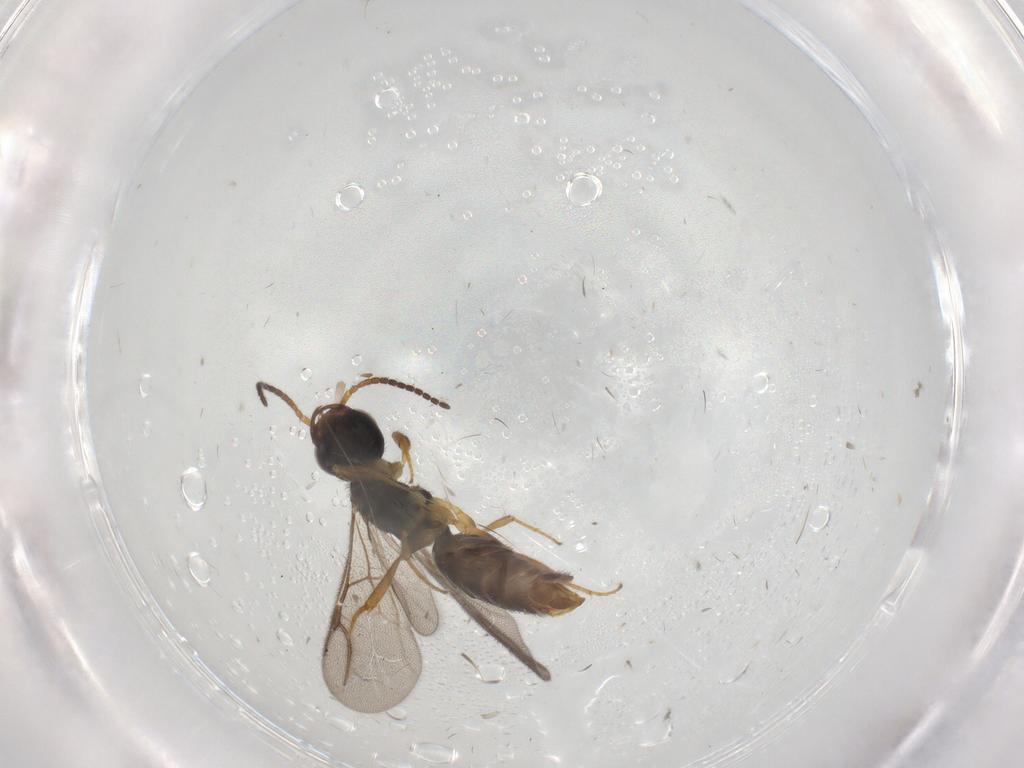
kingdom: Animalia
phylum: Arthropoda
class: Insecta
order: Hymenoptera
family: Bethylidae
